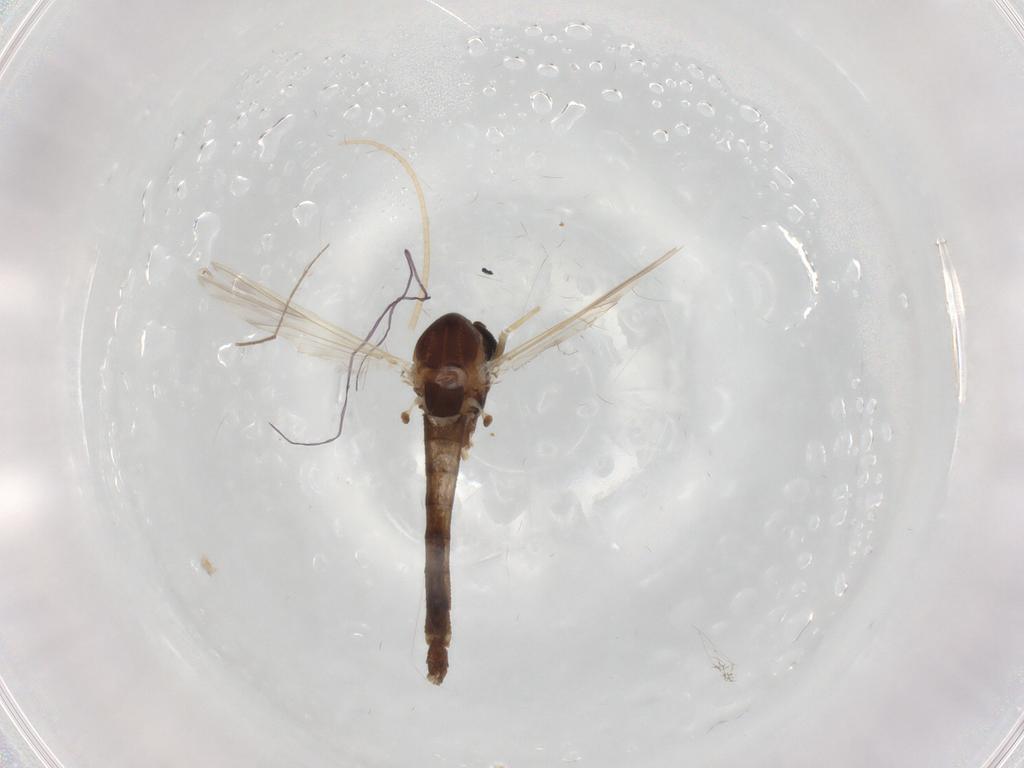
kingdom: Animalia
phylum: Arthropoda
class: Insecta
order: Diptera
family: Chironomidae
